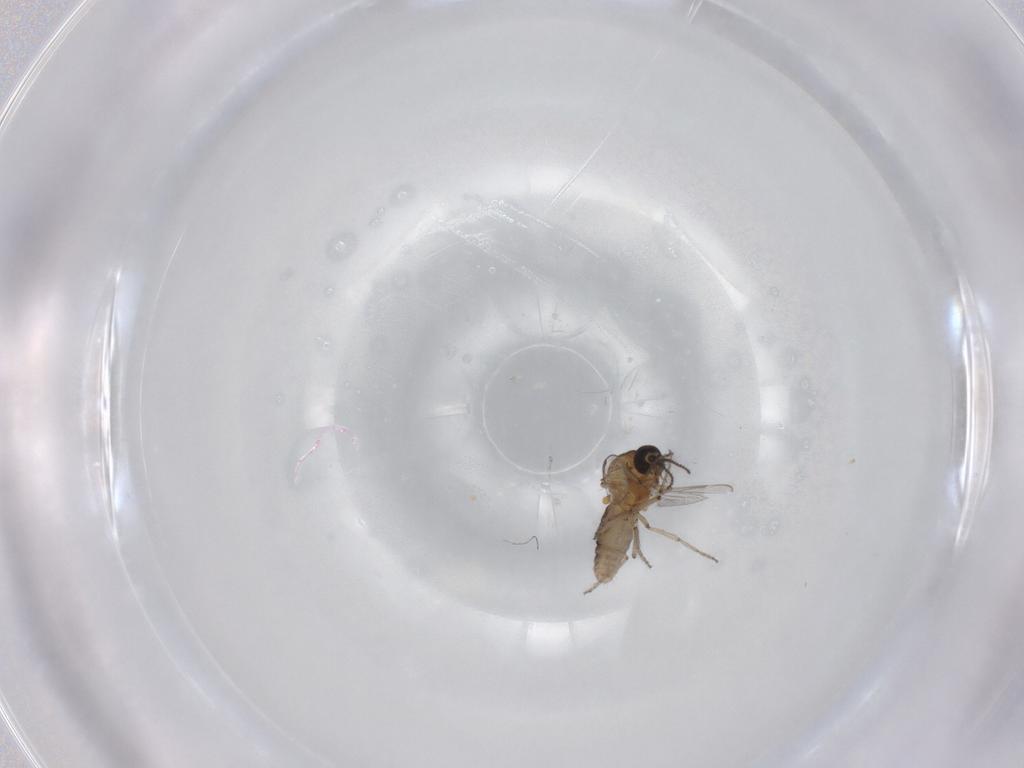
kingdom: Animalia
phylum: Arthropoda
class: Insecta
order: Diptera
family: Ceratopogonidae
